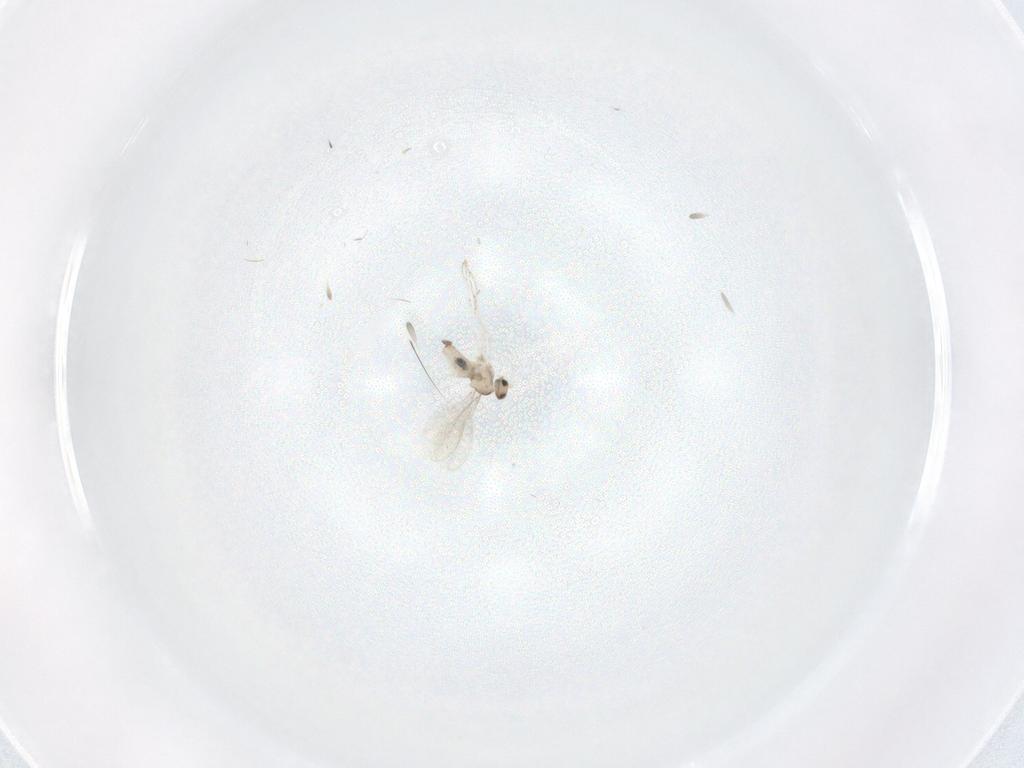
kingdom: Animalia
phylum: Arthropoda
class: Insecta
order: Diptera
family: Cecidomyiidae
